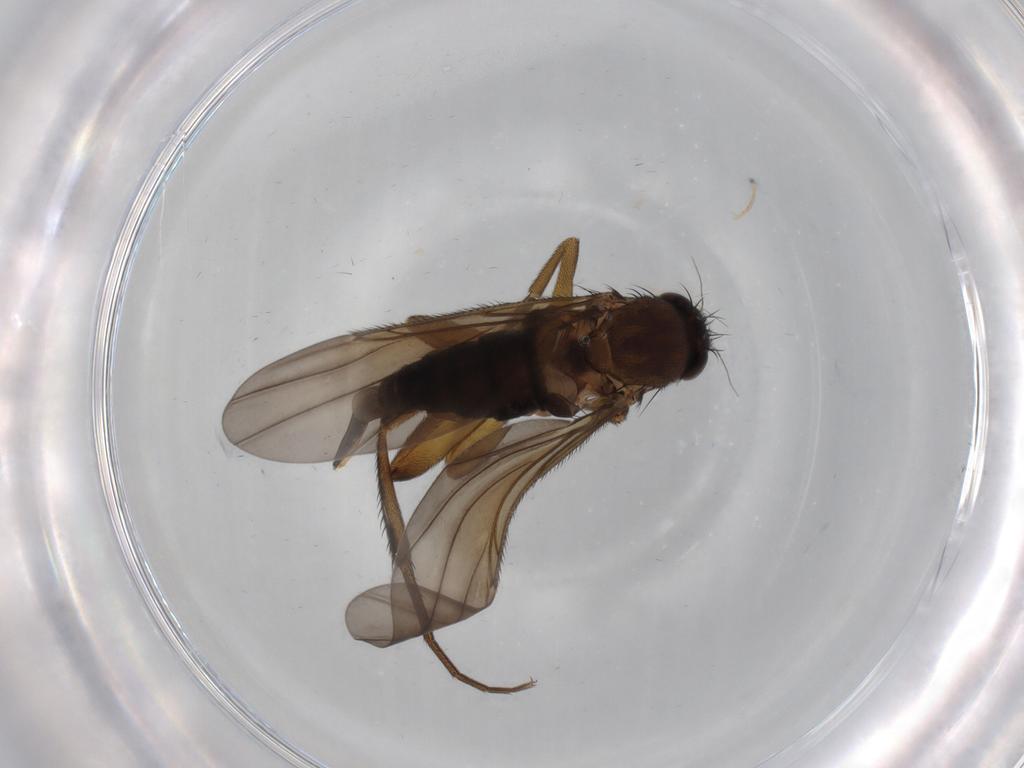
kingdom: Animalia
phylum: Arthropoda
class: Insecta
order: Diptera
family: Phoridae
